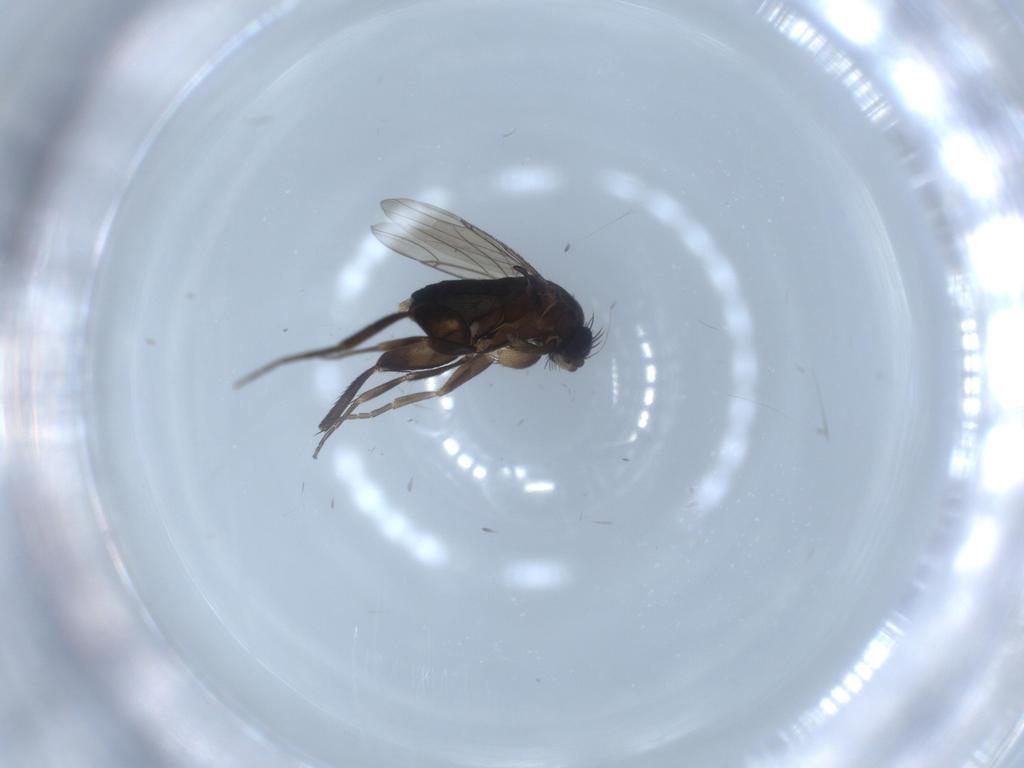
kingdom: Animalia
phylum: Arthropoda
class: Insecta
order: Diptera
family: Phoridae
